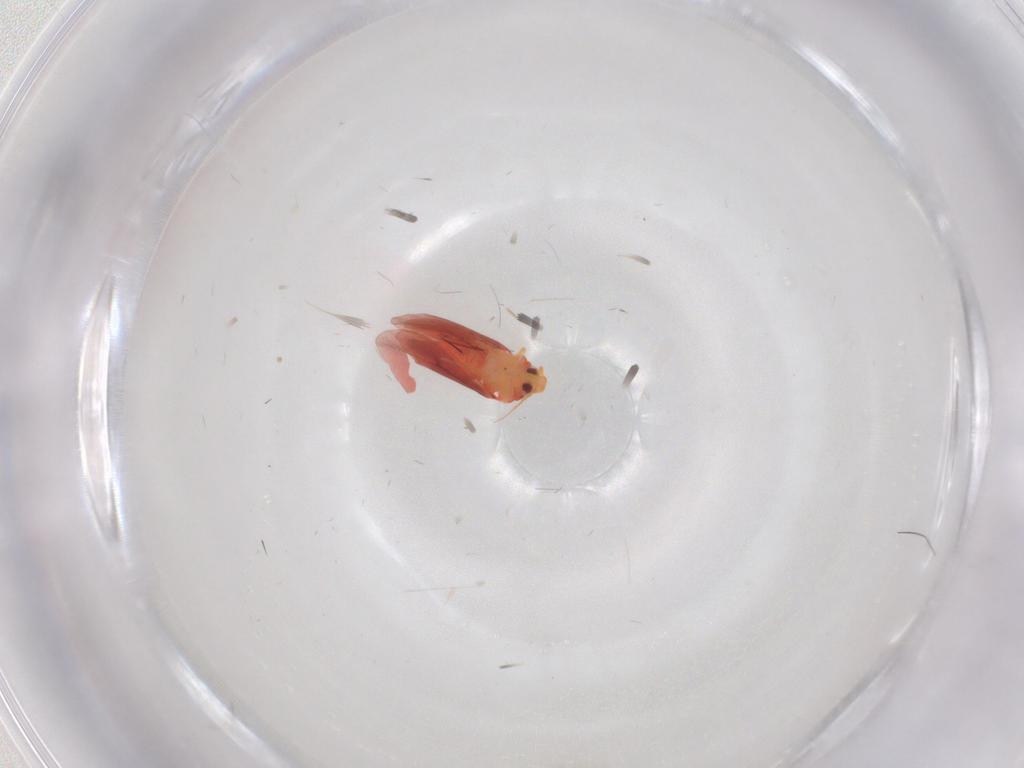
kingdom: Animalia
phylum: Arthropoda
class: Insecta
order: Hemiptera
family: Aleyrodidae
